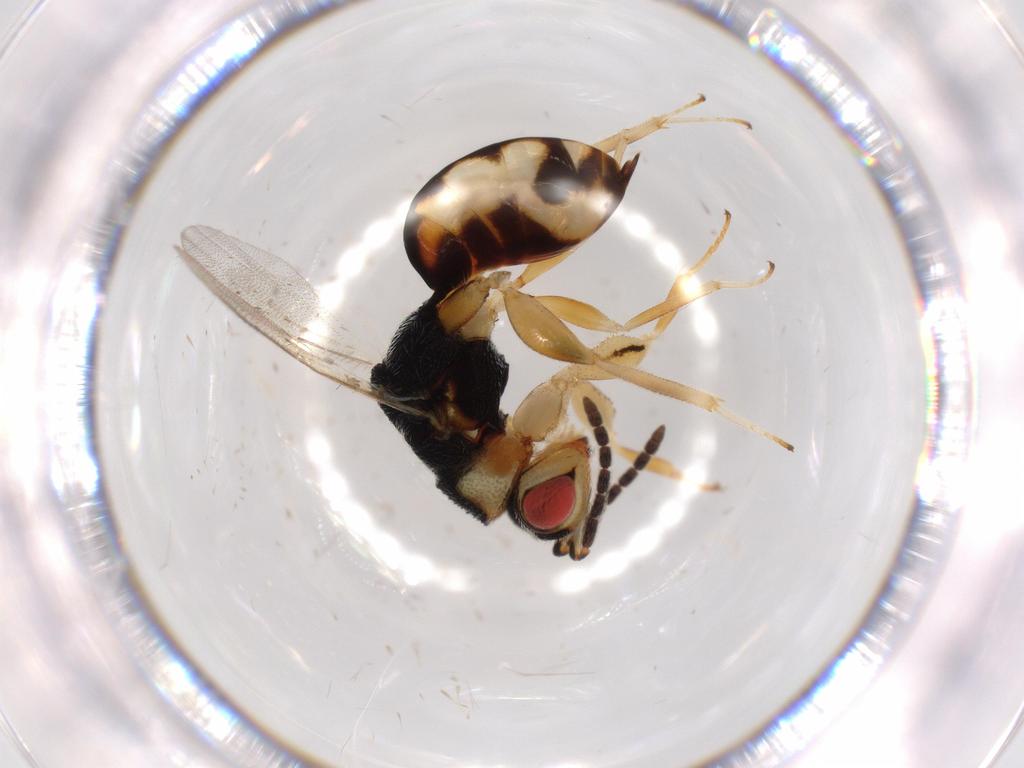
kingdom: Animalia
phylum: Arthropoda
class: Insecta
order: Hymenoptera
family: Bethylidae
